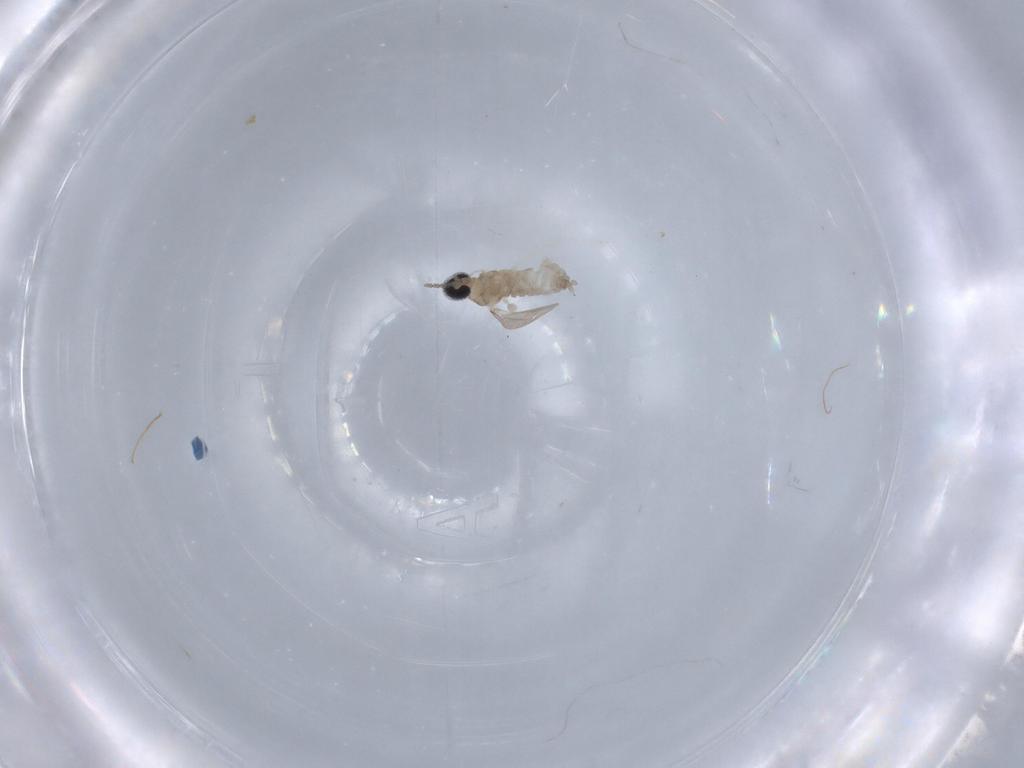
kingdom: Animalia
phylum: Arthropoda
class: Insecta
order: Diptera
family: Cecidomyiidae
